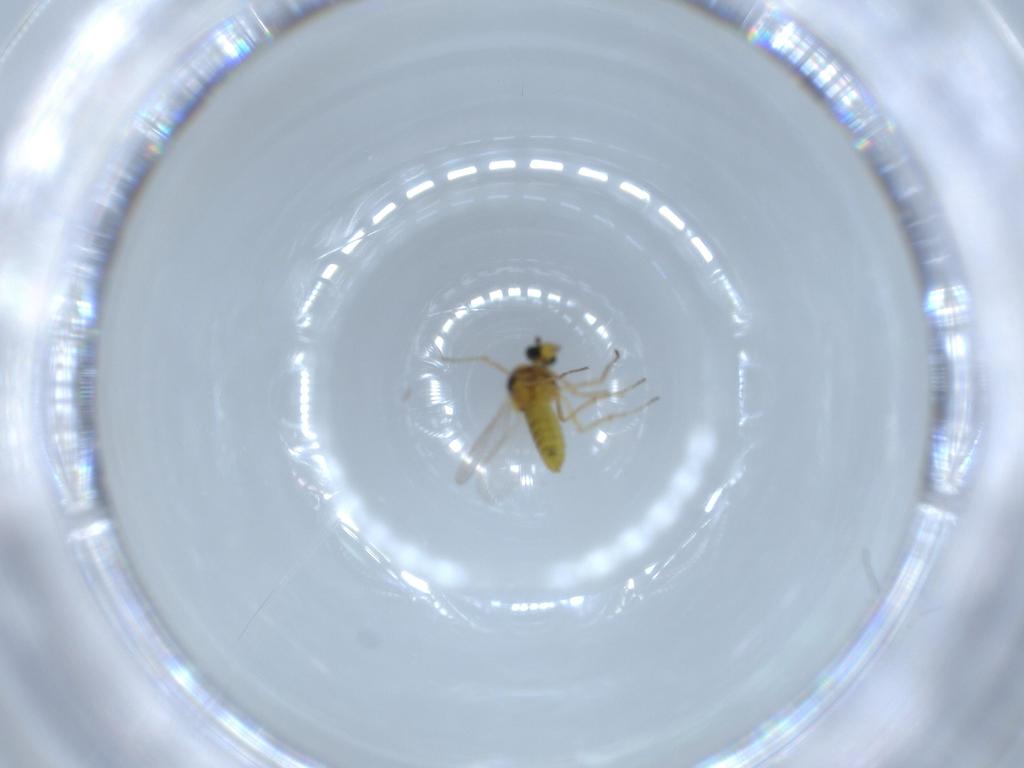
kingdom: Animalia
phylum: Arthropoda
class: Insecta
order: Diptera
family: Ceratopogonidae
